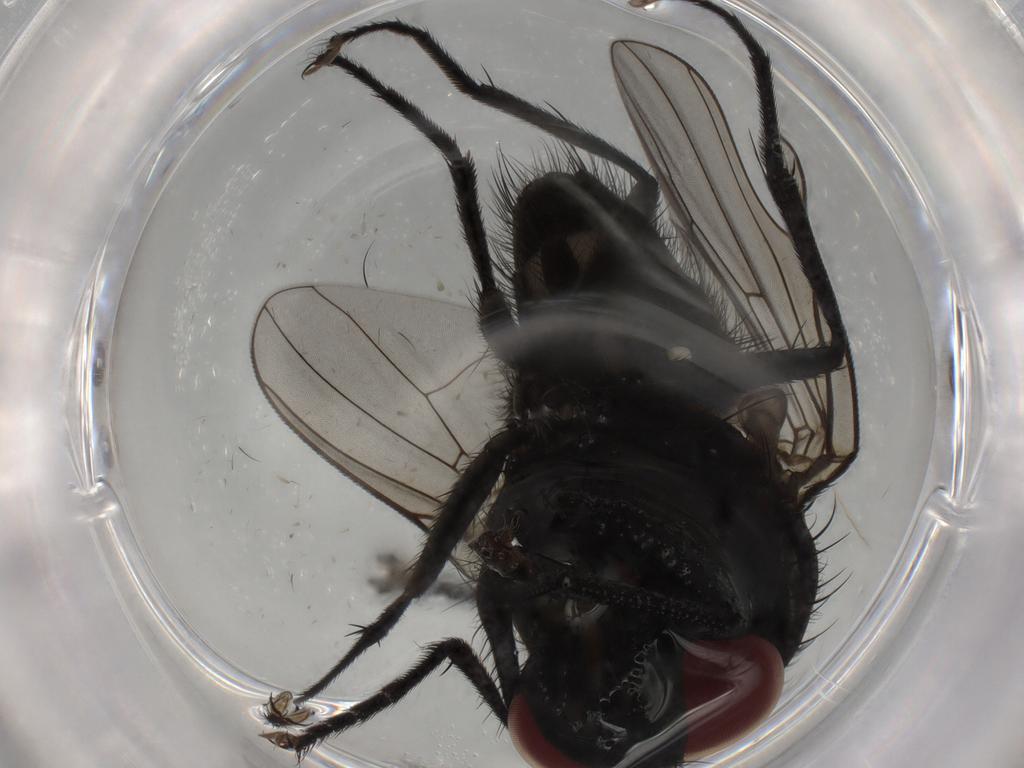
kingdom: Animalia
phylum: Arthropoda
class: Insecta
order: Diptera
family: Muscidae
